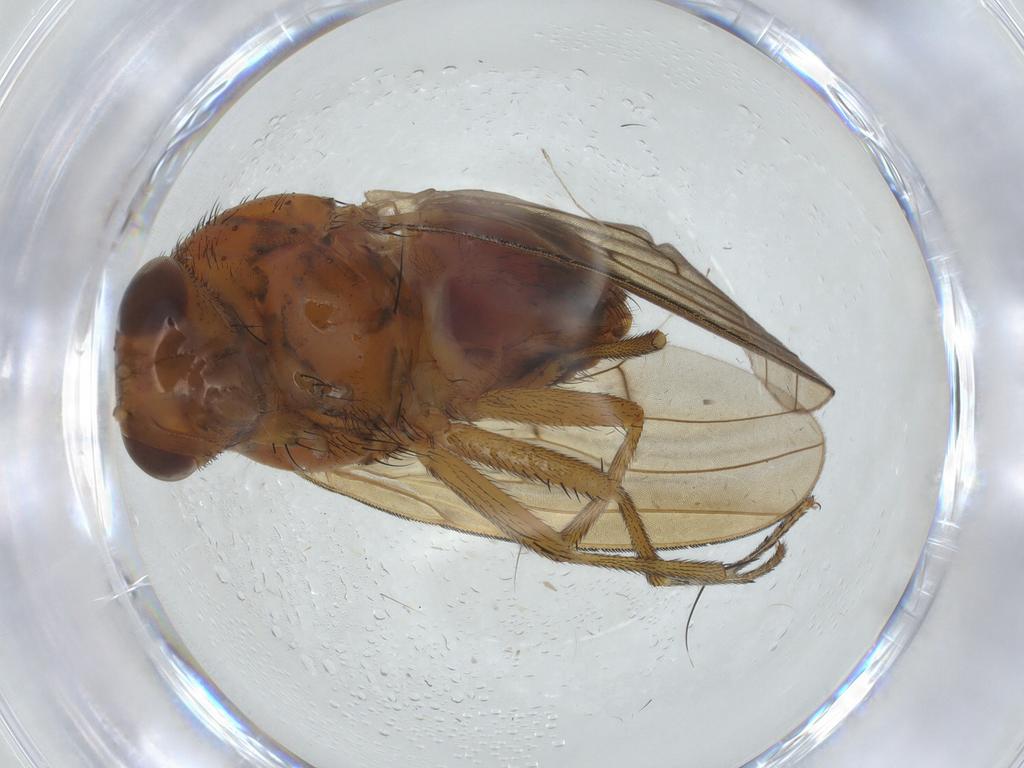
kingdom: Animalia
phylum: Arthropoda
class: Insecta
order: Diptera
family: Cecidomyiidae
